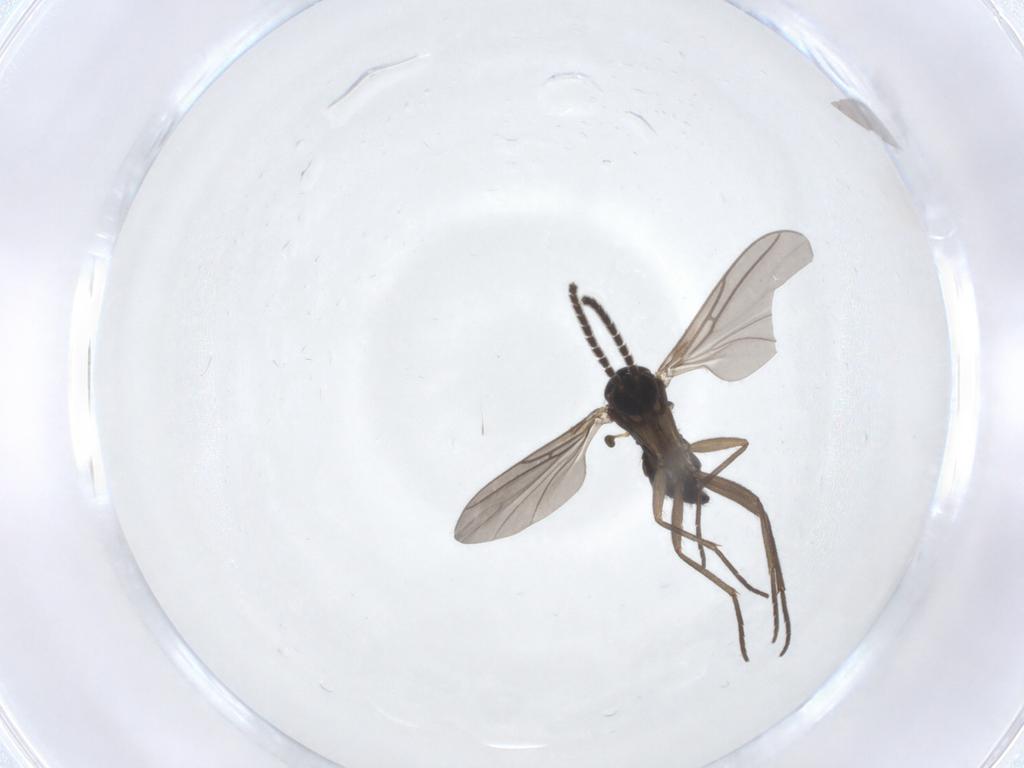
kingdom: Animalia
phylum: Arthropoda
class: Insecta
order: Diptera
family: Sciaridae
